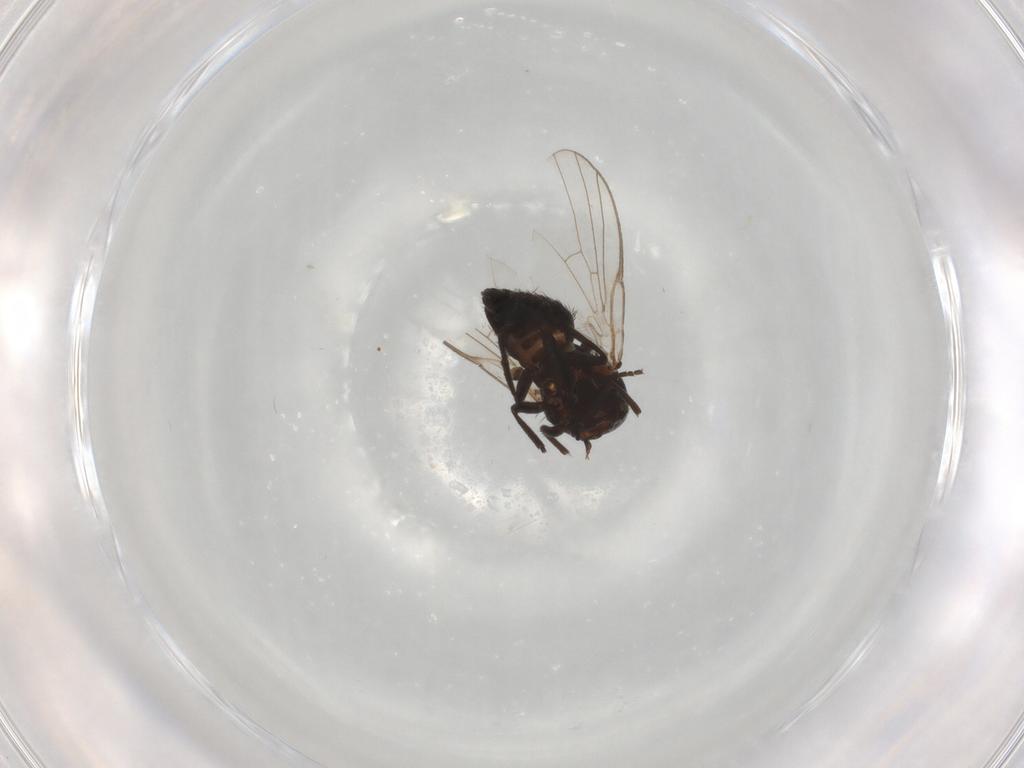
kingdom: Animalia
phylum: Arthropoda
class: Insecta
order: Diptera
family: Agromyzidae
